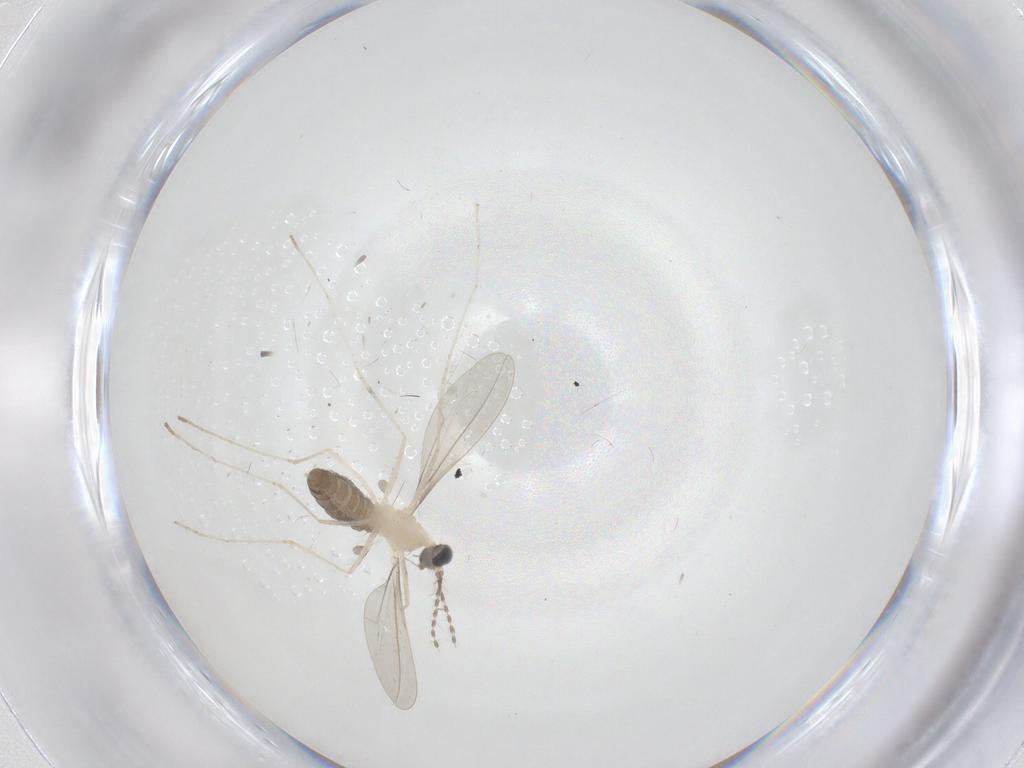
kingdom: Animalia
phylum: Arthropoda
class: Insecta
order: Diptera
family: Cecidomyiidae
